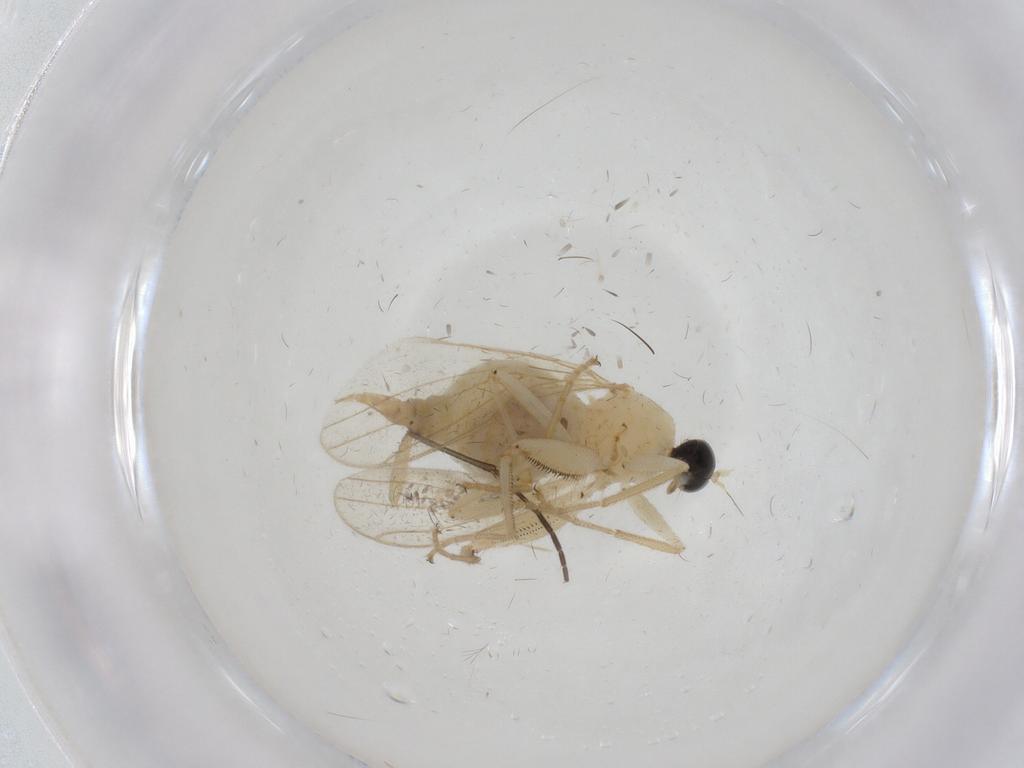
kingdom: Animalia
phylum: Arthropoda
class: Insecta
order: Diptera
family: Hybotidae
